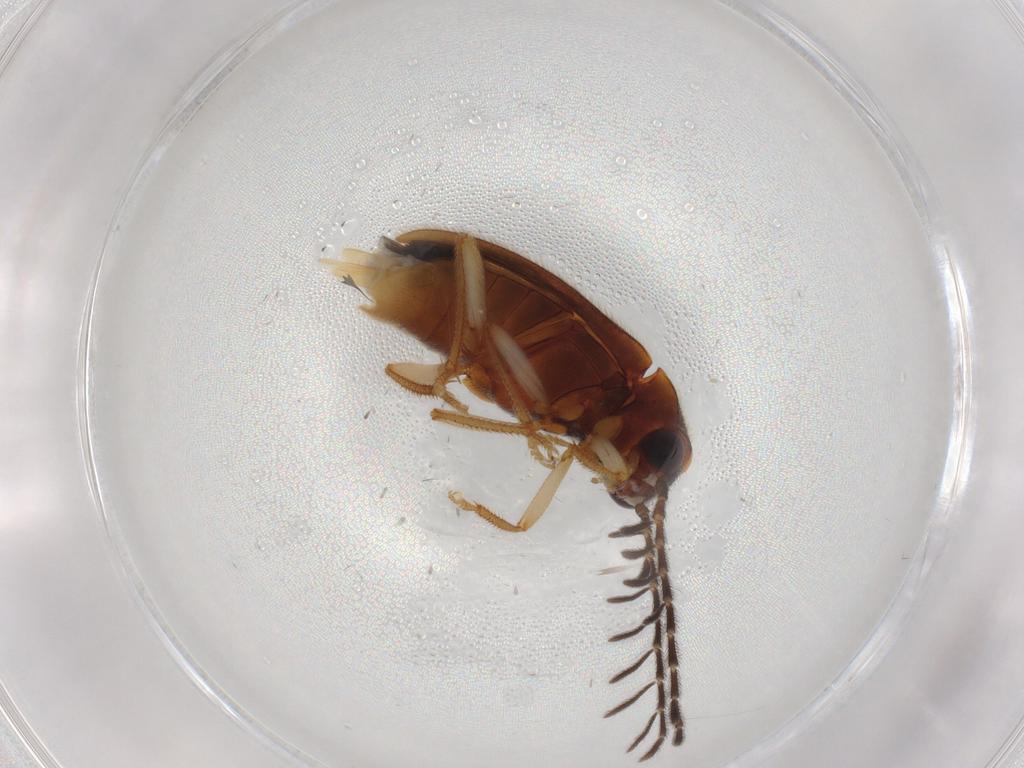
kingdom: Animalia
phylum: Arthropoda
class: Insecta
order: Coleoptera
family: Ptilodactylidae
